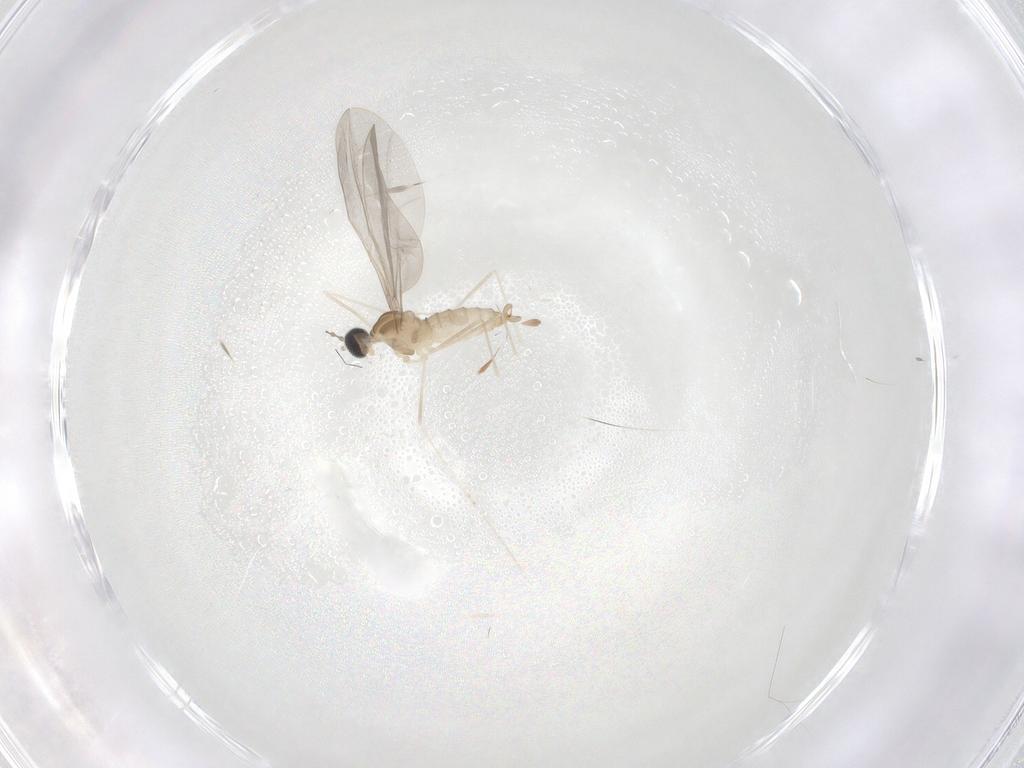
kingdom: Animalia
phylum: Arthropoda
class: Insecta
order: Diptera
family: Cecidomyiidae
